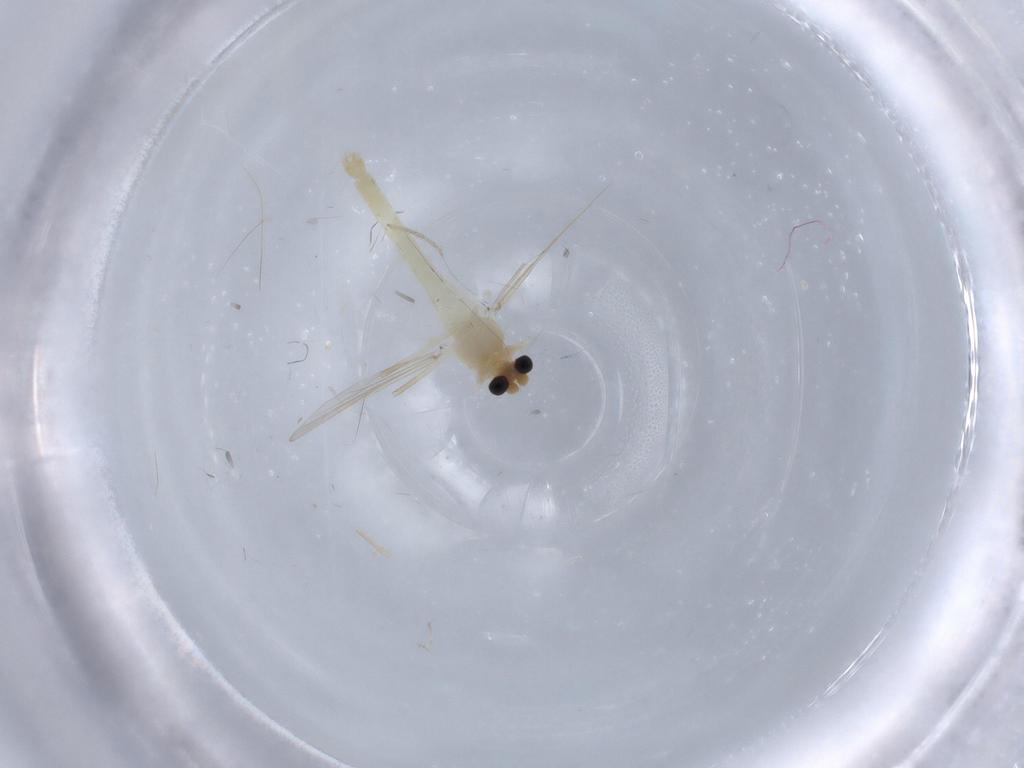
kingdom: Animalia
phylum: Arthropoda
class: Insecta
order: Diptera
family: Chironomidae
